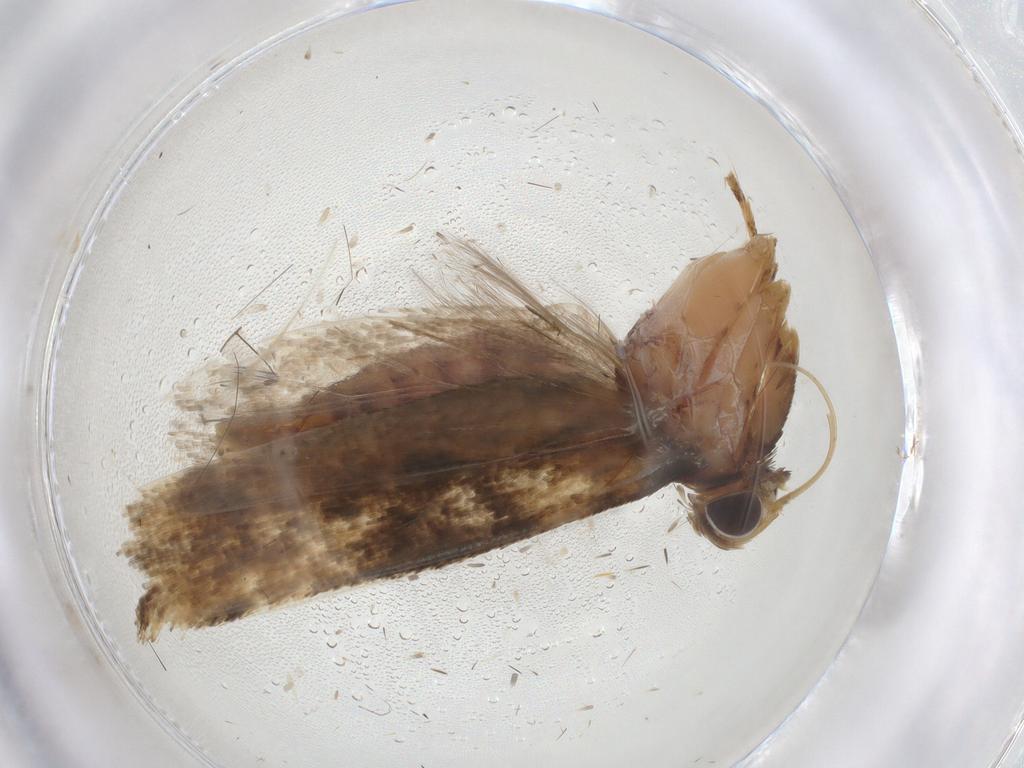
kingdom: Animalia
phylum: Arthropoda
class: Insecta
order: Lepidoptera
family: Gelechiidae
